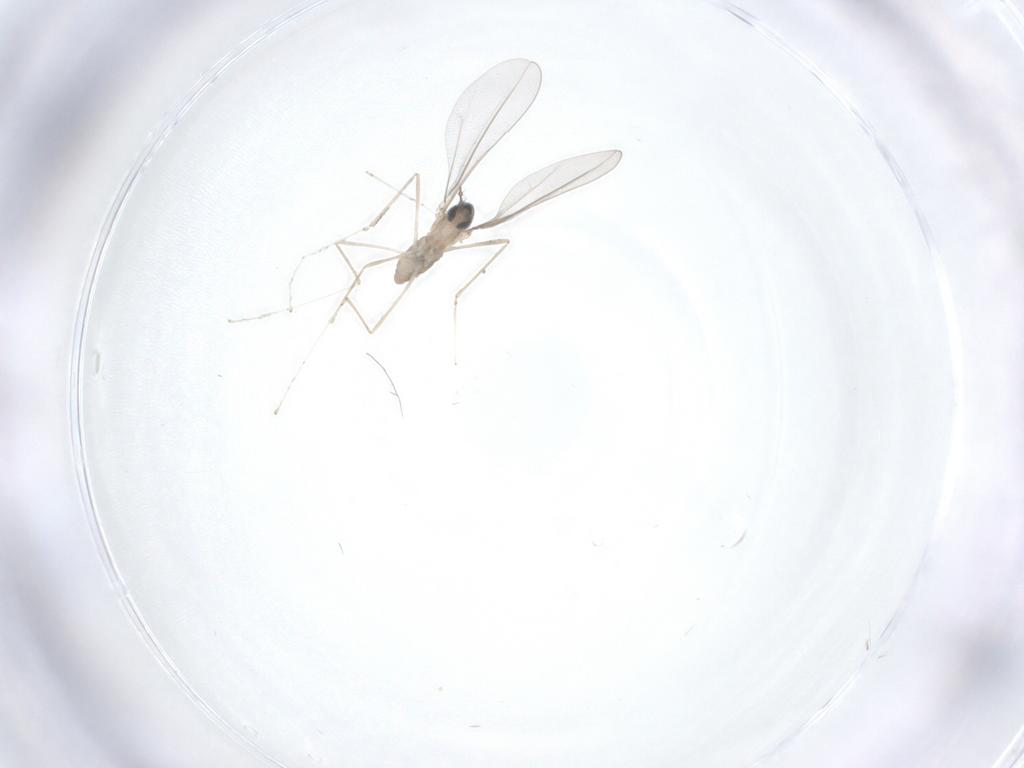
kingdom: Animalia
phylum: Arthropoda
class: Insecta
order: Diptera
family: Cecidomyiidae
